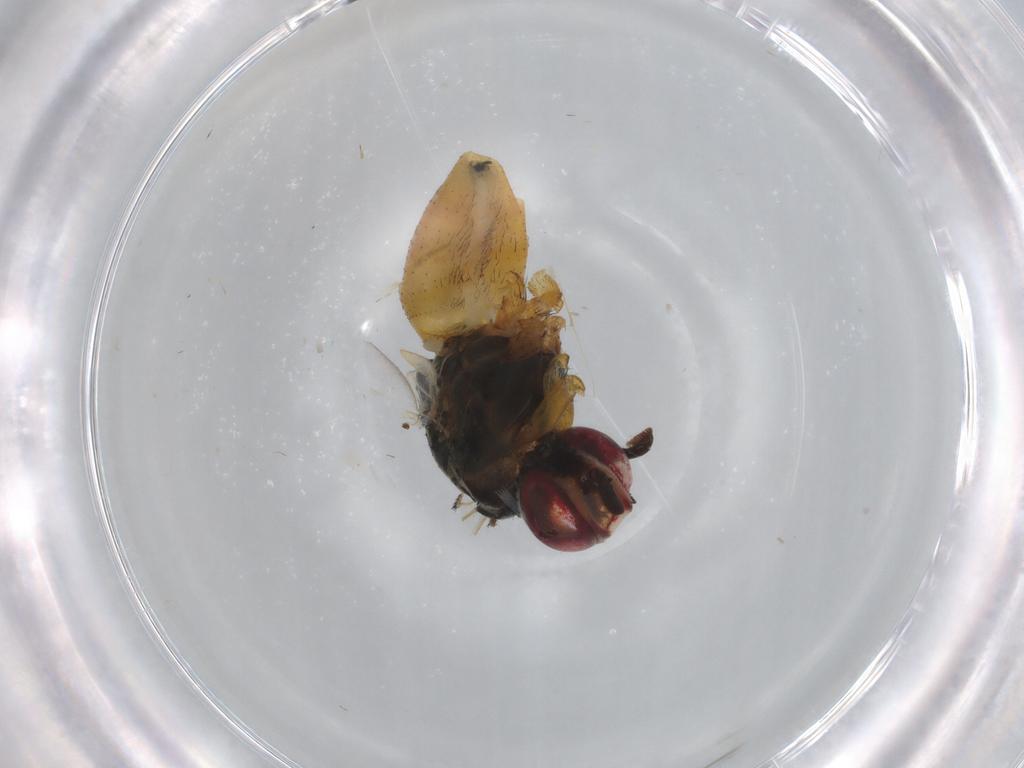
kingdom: Animalia
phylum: Arthropoda
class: Insecta
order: Diptera
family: Muscidae
